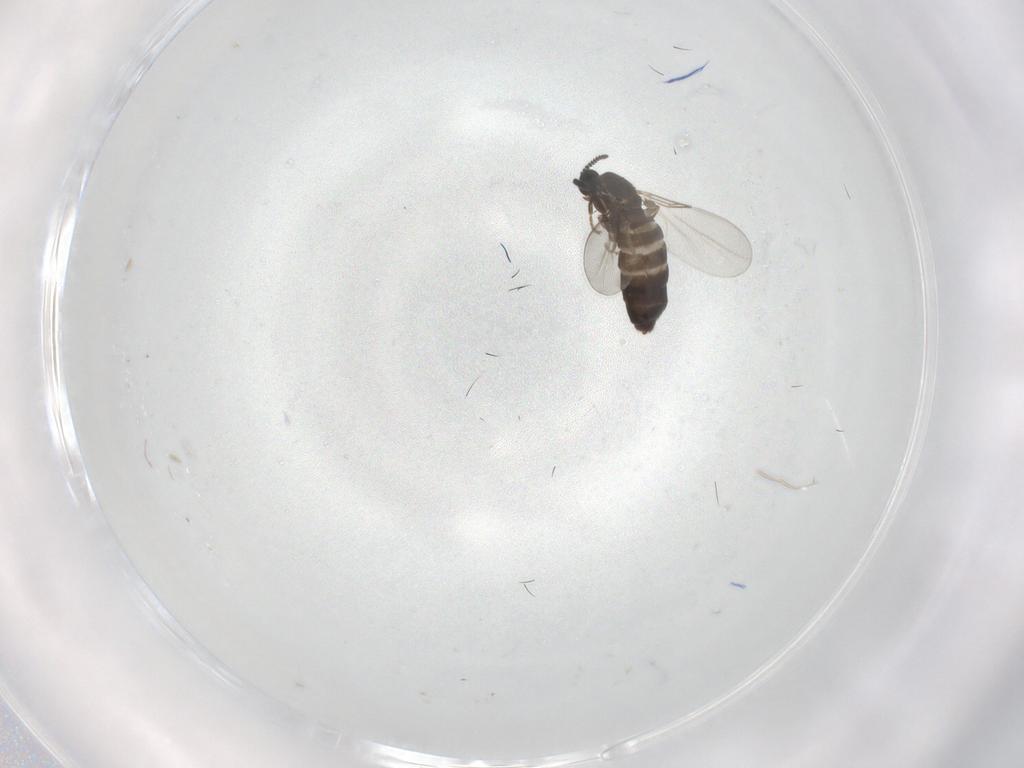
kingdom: Animalia
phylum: Arthropoda
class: Insecta
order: Diptera
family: Scatopsidae
